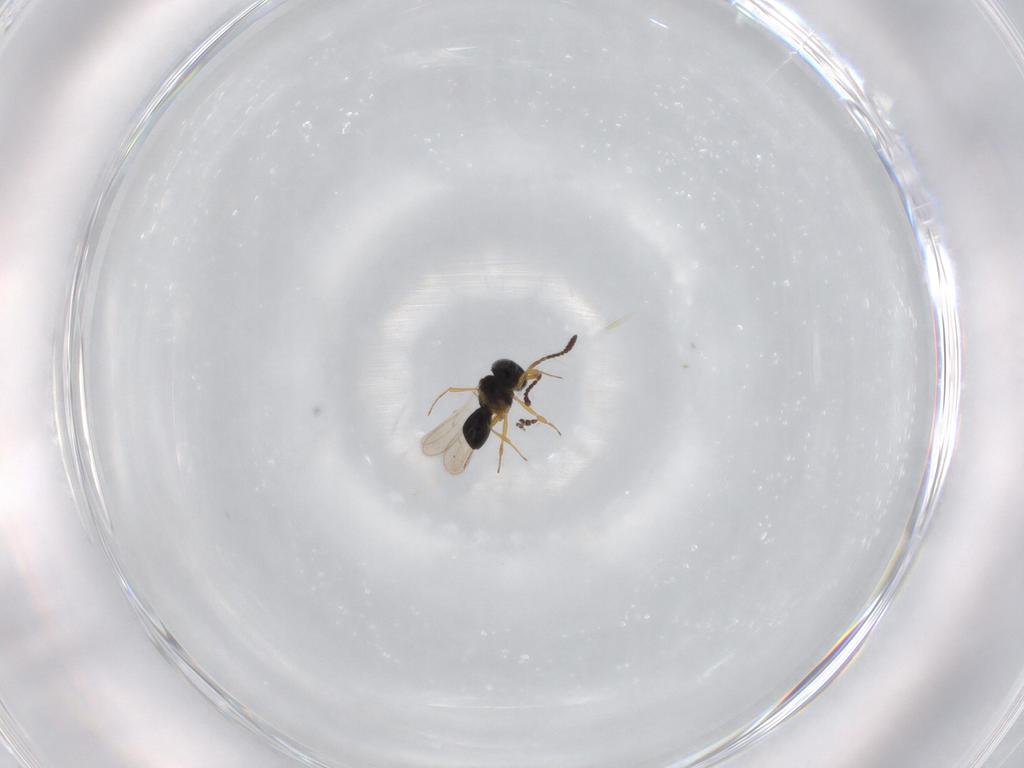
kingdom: Animalia
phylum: Arthropoda
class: Insecta
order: Hymenoptera
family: Scelionidae
